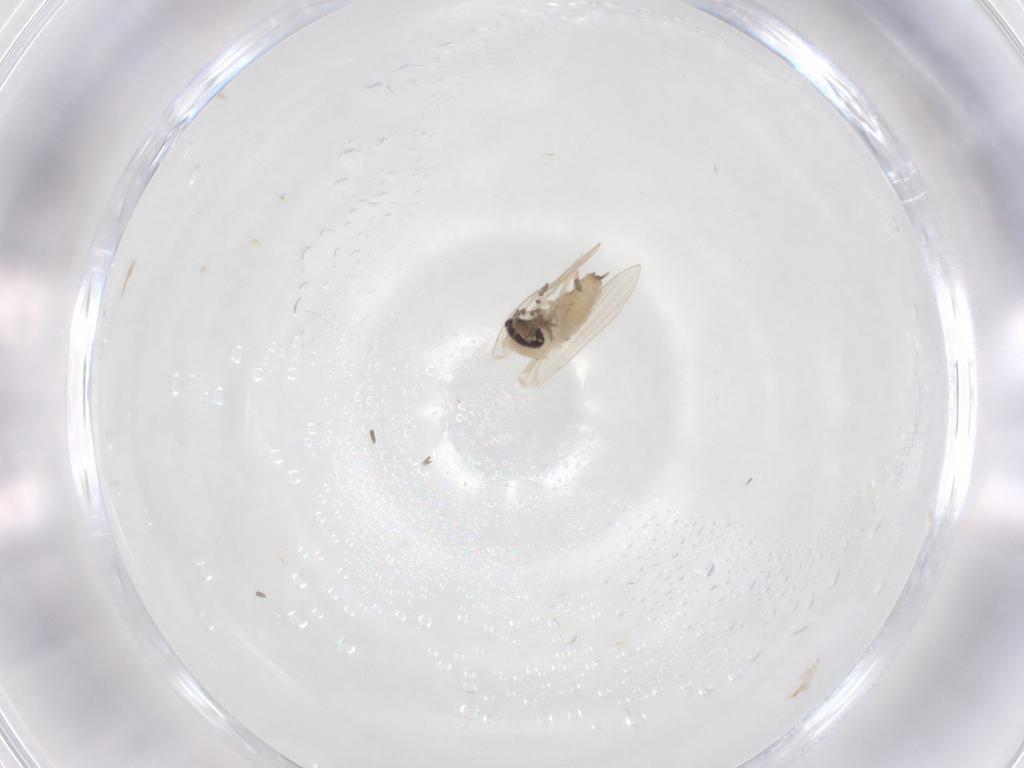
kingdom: Animalia
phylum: Arthropoda
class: Insecta
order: Diptera
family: Psychodidae
